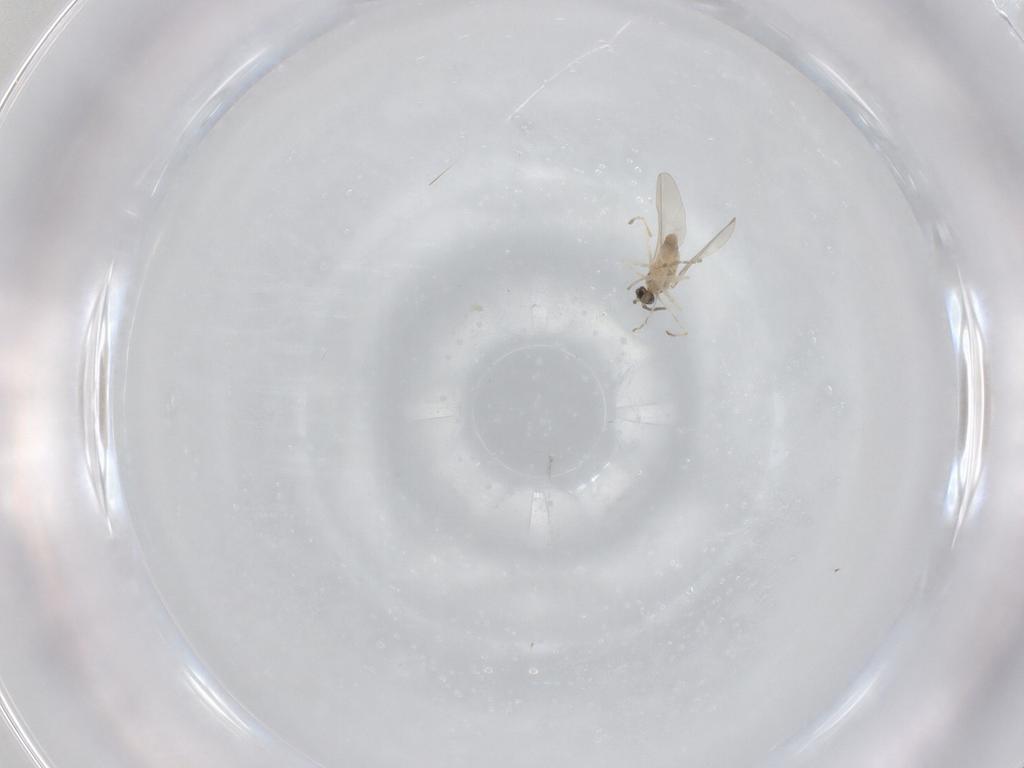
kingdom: Animalia
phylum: Arthropoda
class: Insecta
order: Diptera
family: Cecidomyiidae
